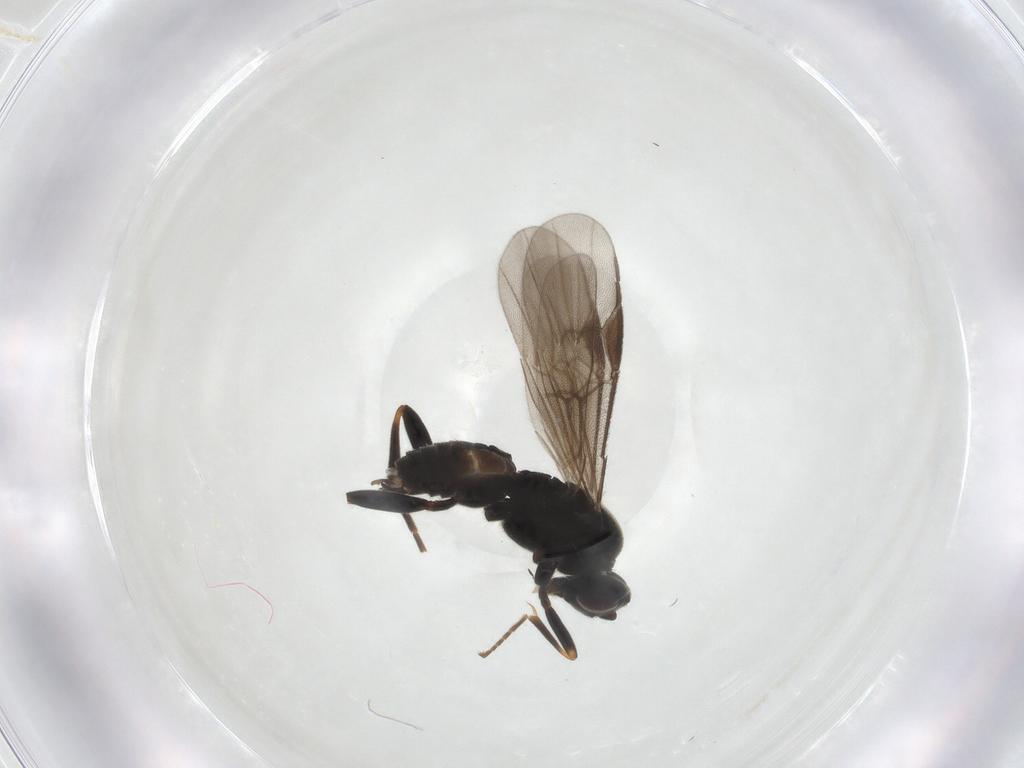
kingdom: Animalia
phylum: Arthropoda
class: Insecta
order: Hymenoptera
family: Braconidae
